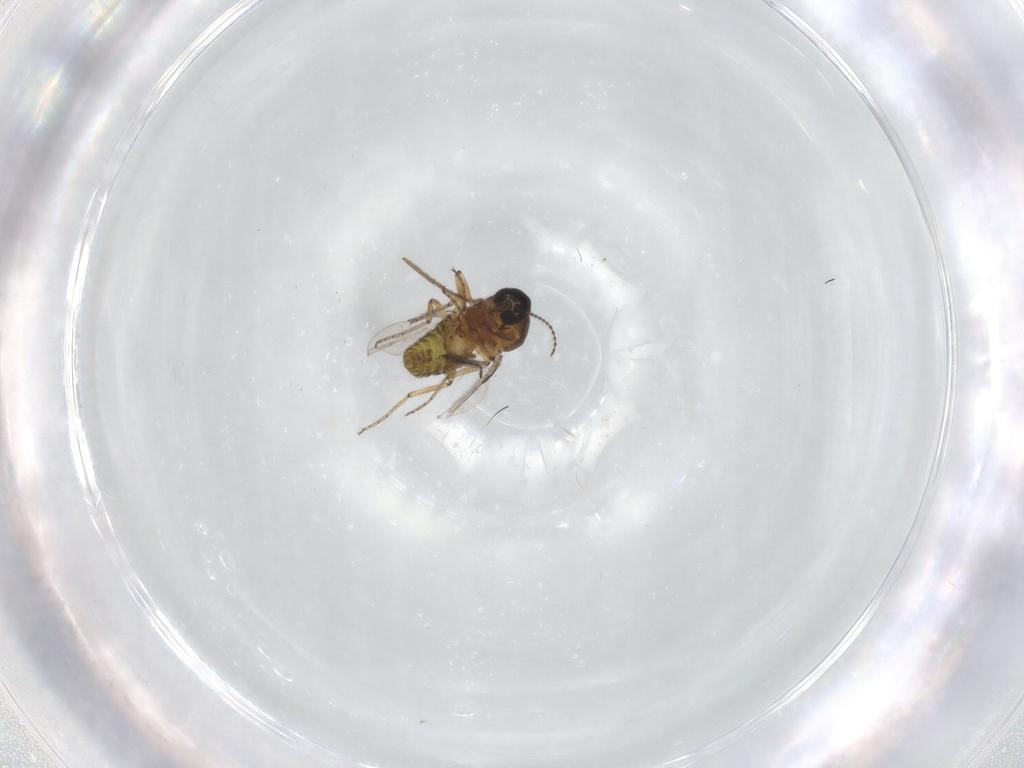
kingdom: Animalia
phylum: Arthropoda
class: Insecta
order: Diptera
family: Ceratopogonidae
